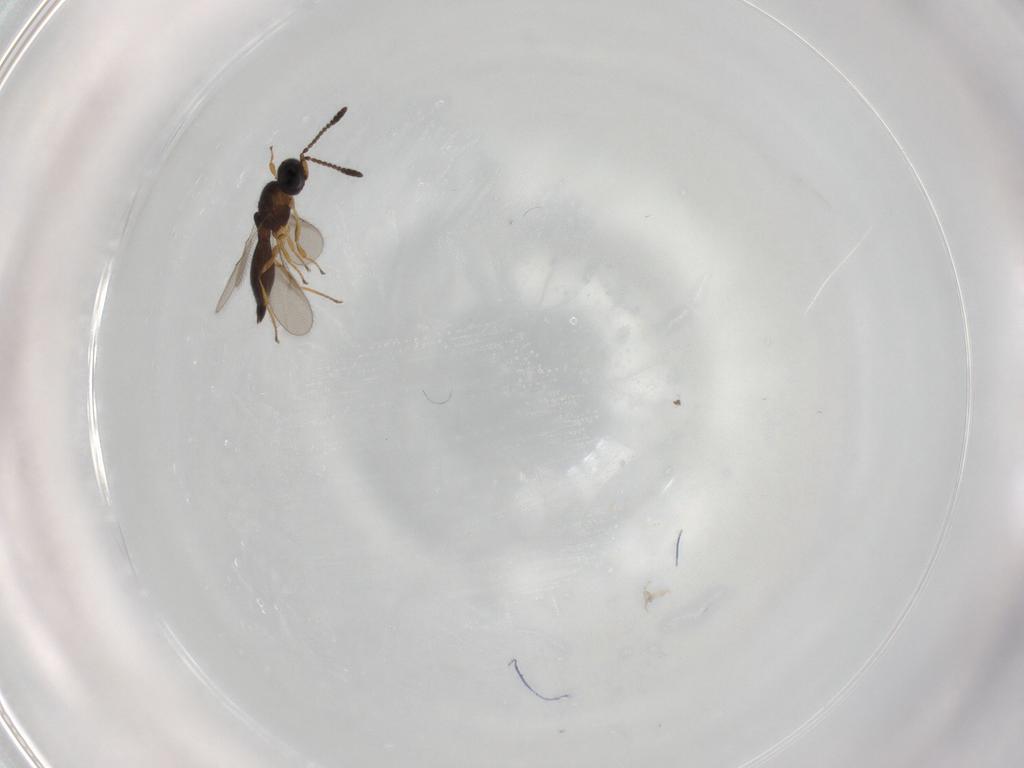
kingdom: Animalia
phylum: Arthropoda
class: Insecta
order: Hymenoptera
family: Scelionidae
